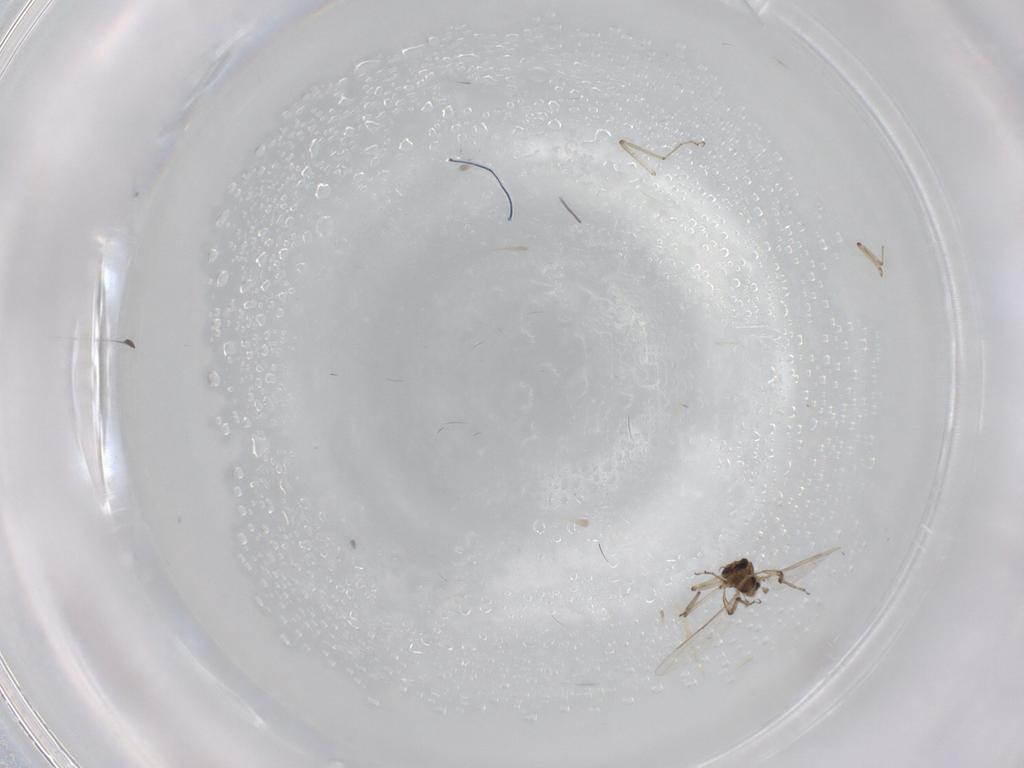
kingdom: Animalia
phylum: Arthropoda
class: Insecta
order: Diptera
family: Ceratopogonidae
